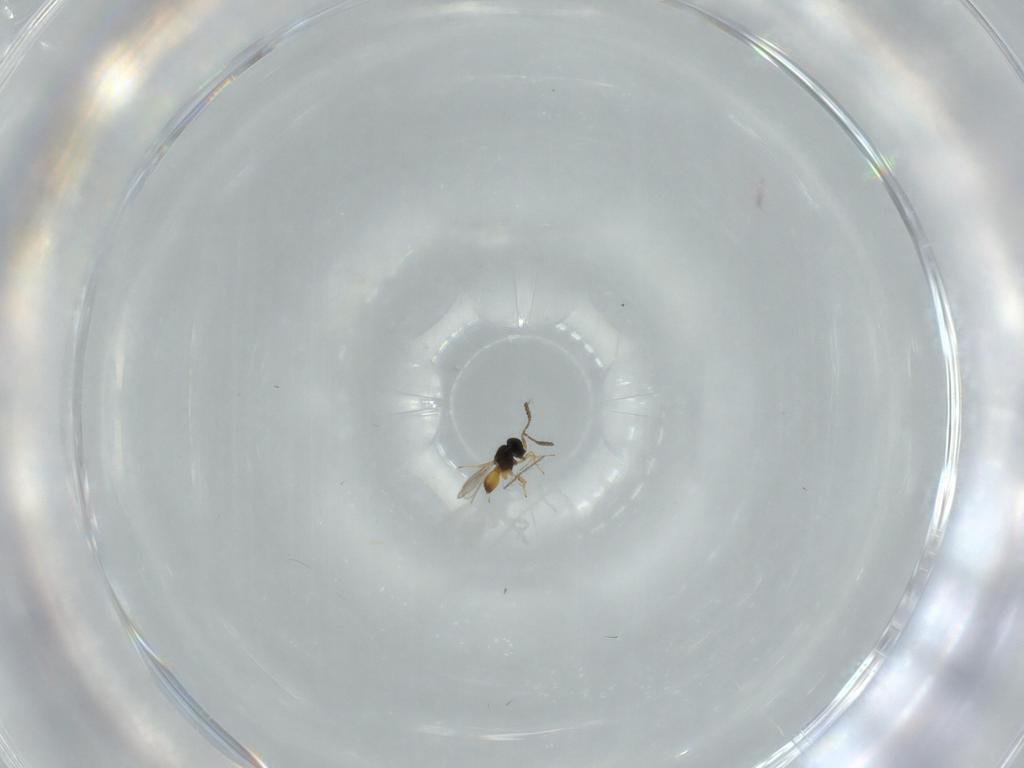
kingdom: Animalia
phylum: Arthropoda
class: Insecta
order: Hymenoptera
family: Scelionidae
